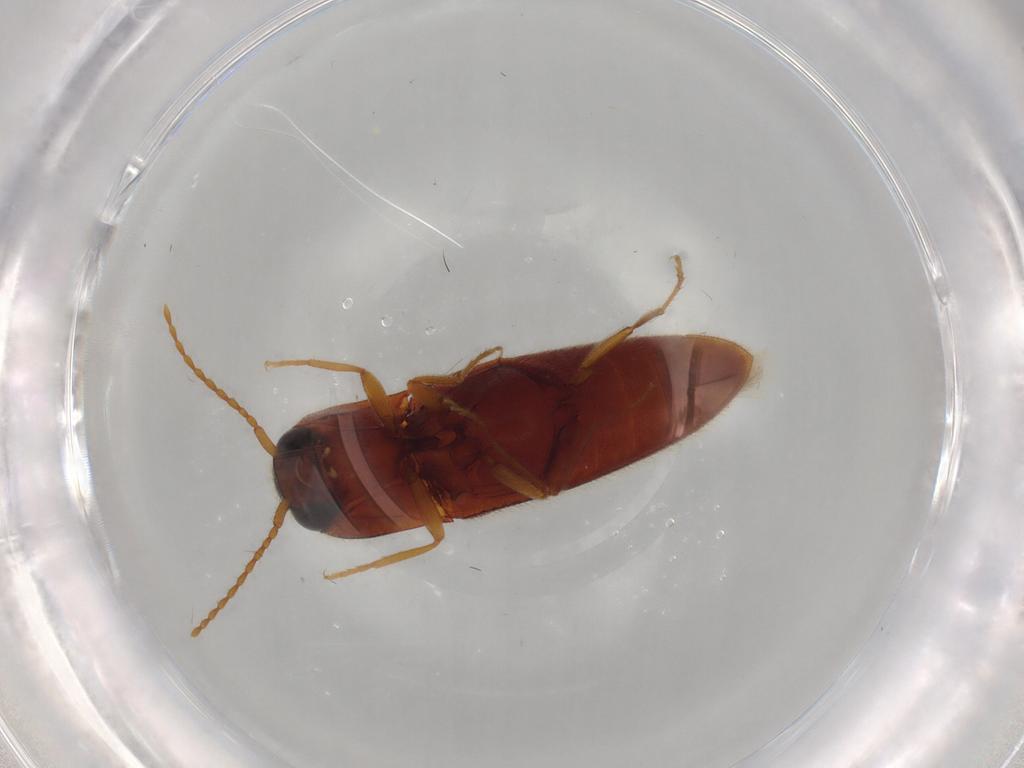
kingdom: Animalia
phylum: Arthropoda
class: Insecta
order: Coleoptera
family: Elateridae
